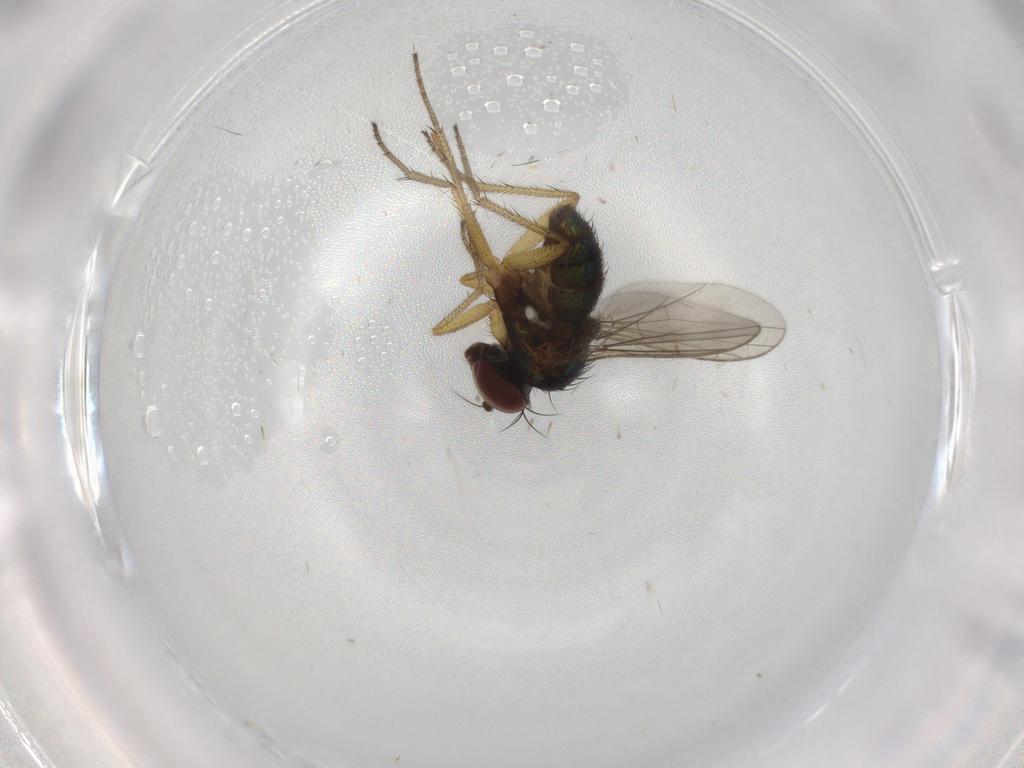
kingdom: Animalia
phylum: Arthropoda
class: Insecta
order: Diptera
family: Dolichopodidae
